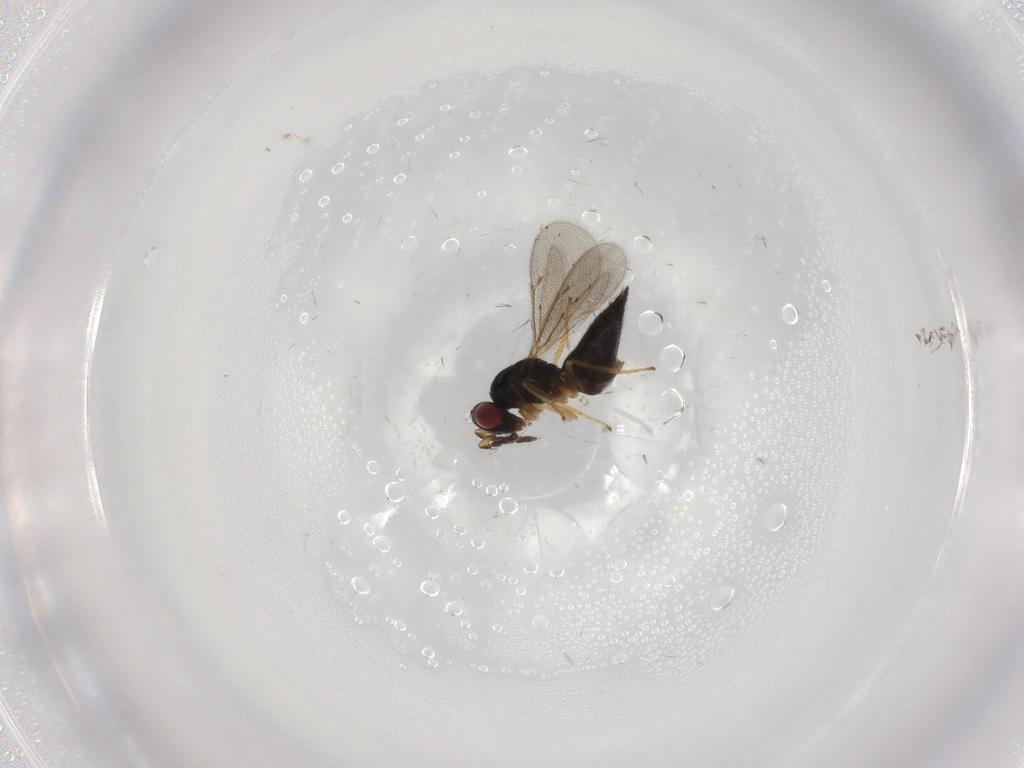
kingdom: Animalia
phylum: Arthropoda
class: Insecta
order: Hymenoptera
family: Eulophidae
